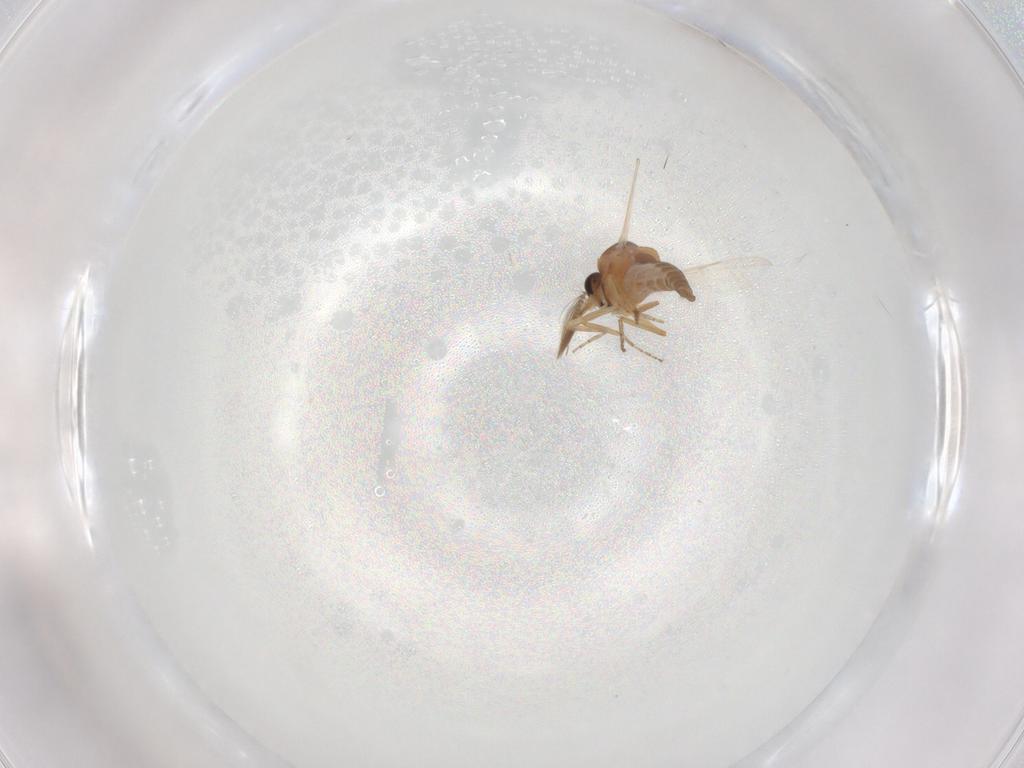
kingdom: Animalia
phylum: Arthropoda
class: Insecta
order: Diptera
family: Ceratopogonidae
